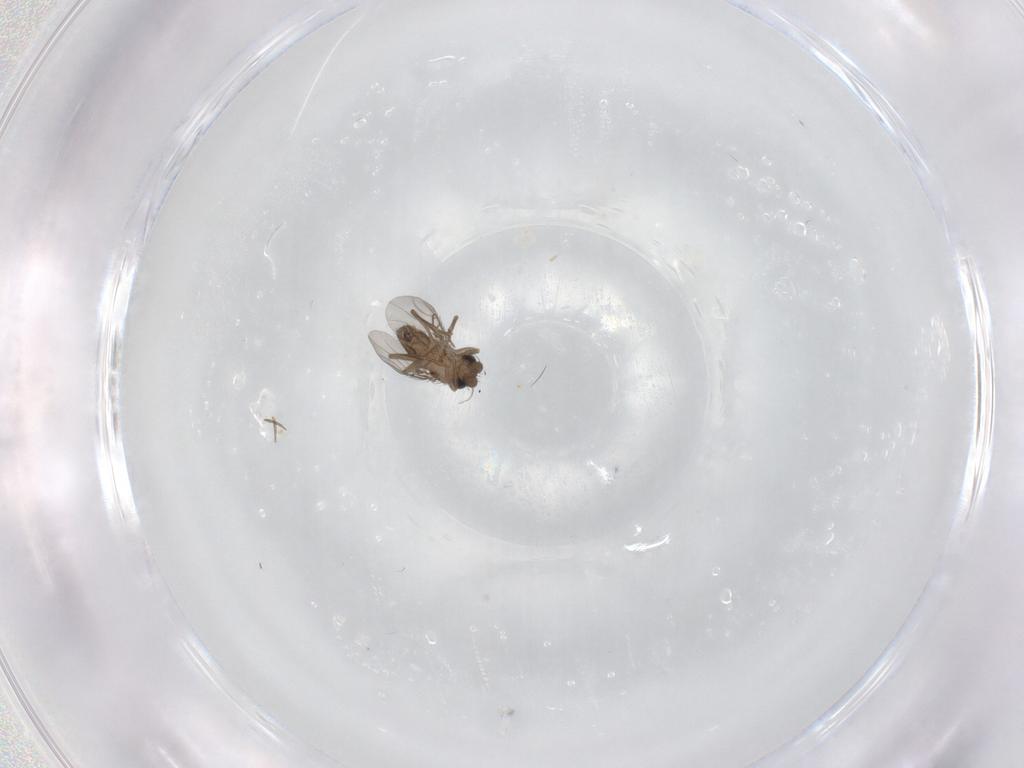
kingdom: Animalia
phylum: Arthropoda
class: Insecta
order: Diptera
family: Phoridae
